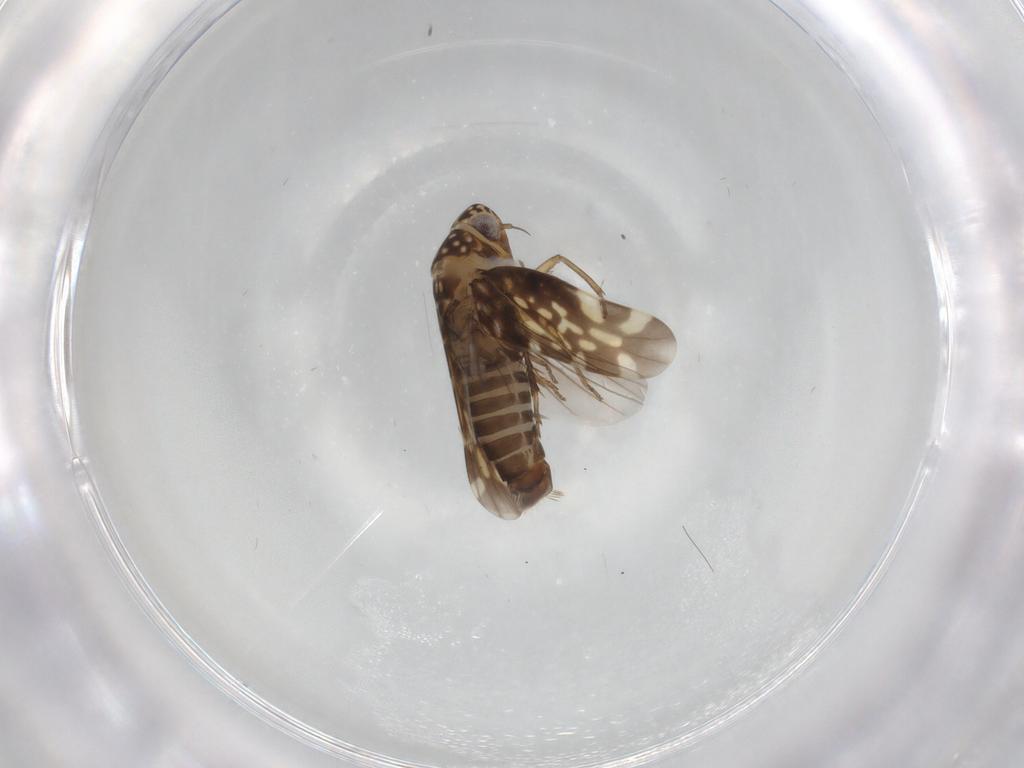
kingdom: Animalia
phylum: Arthropoda
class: Insecta
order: Hemiptera
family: Cicadellidae
